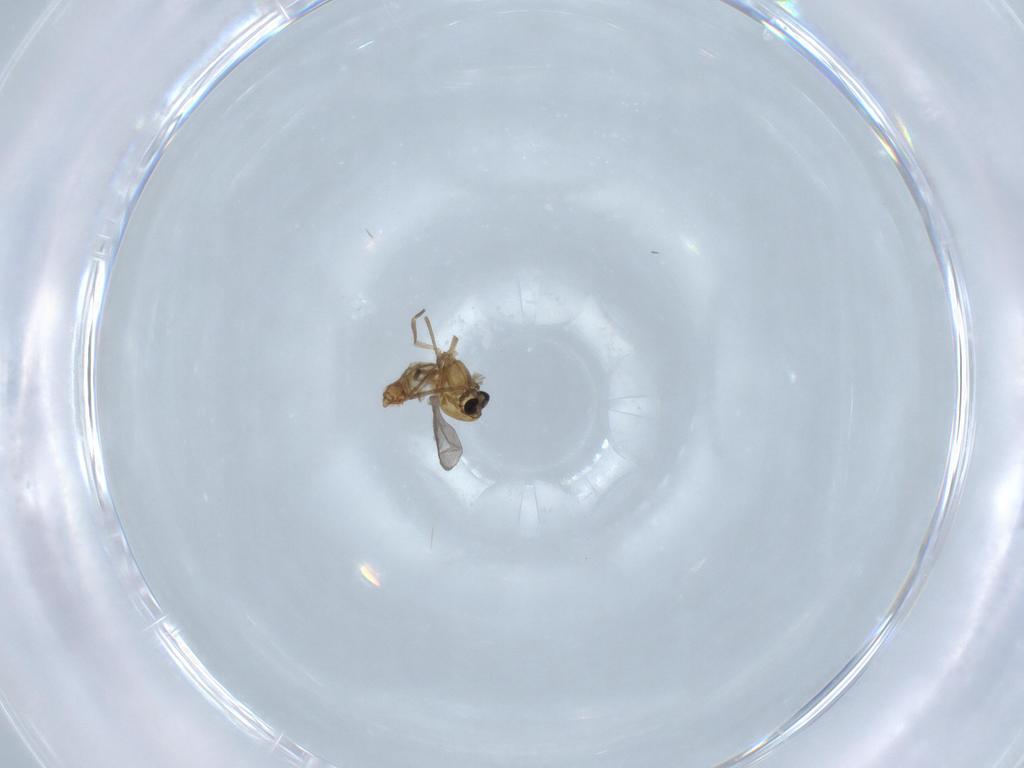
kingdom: Animalia
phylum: Arthropoda
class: Insecta
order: Diptera
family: Chironomidae
